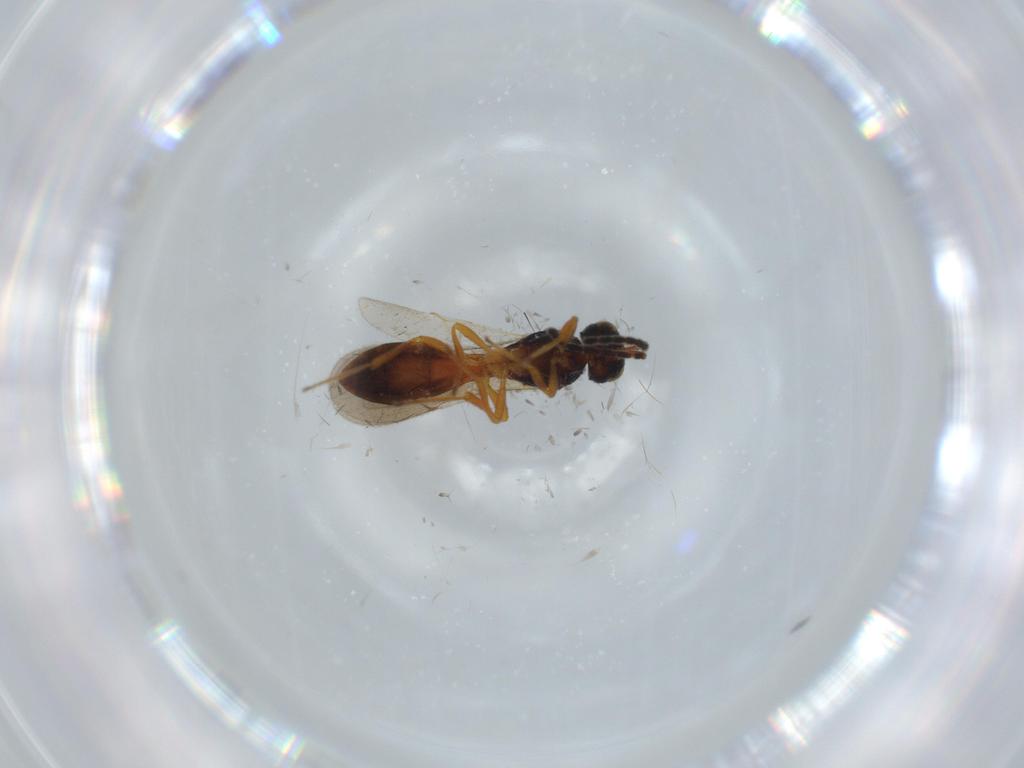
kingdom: Animalia
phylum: Arthropoda
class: Insecta
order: Hymenoptera
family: Scelionidae
